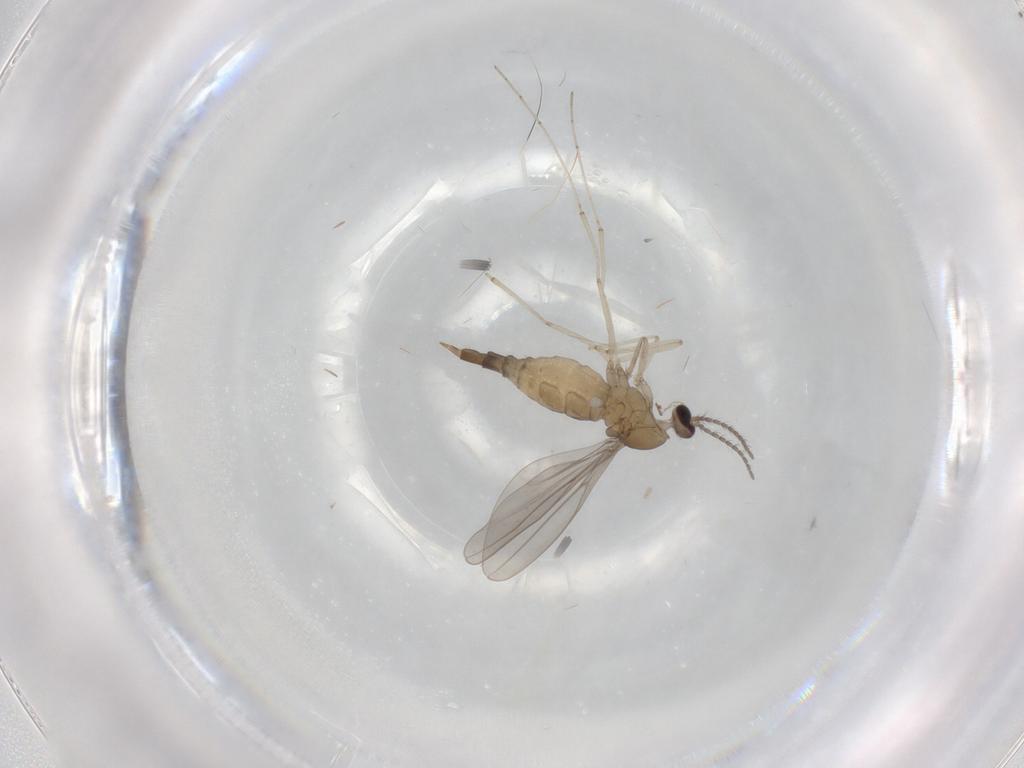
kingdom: Animalia
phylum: Arthropoda
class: Insecta
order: Diptera
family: Cecidomyiidae
